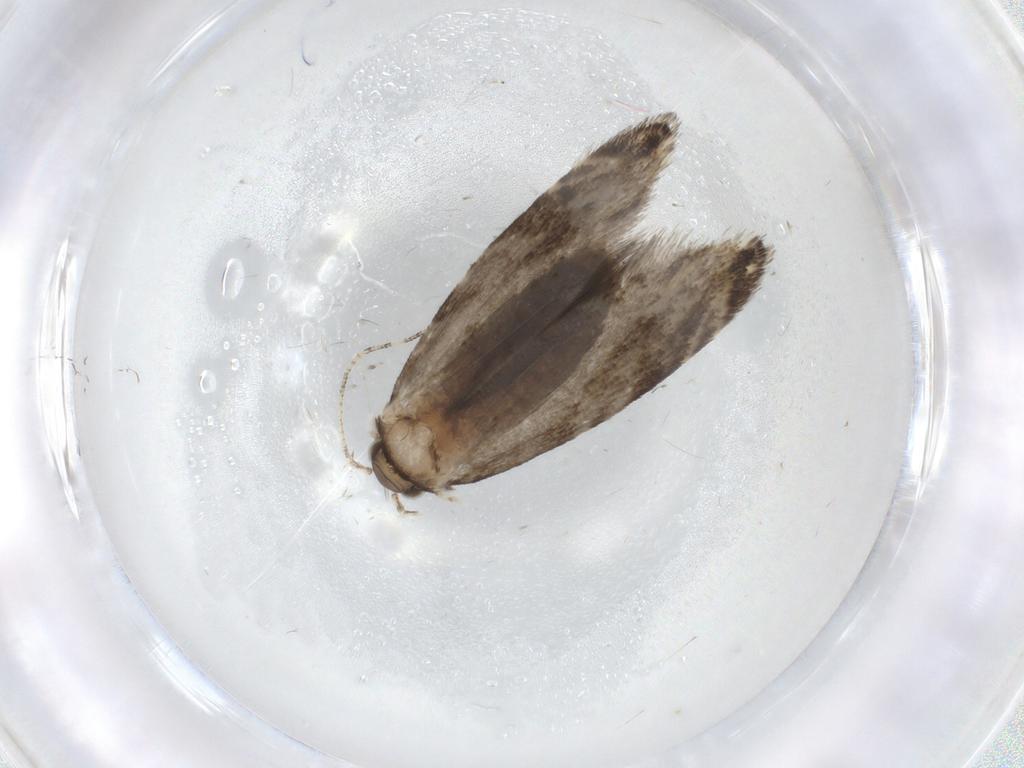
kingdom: Animalia
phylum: Arthropoda
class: Insecta
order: Lepidoptera
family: Tineidae
